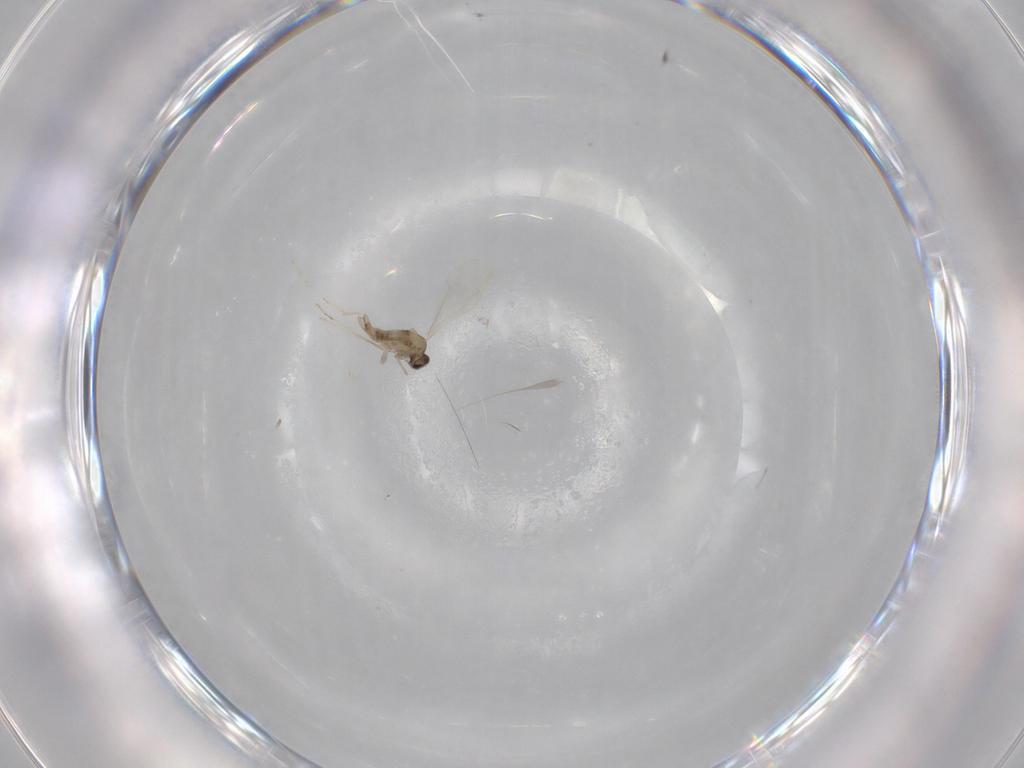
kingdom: Animalia
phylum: Arthropoda
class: Insecta
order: Diptera
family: Cecidomyiidae
